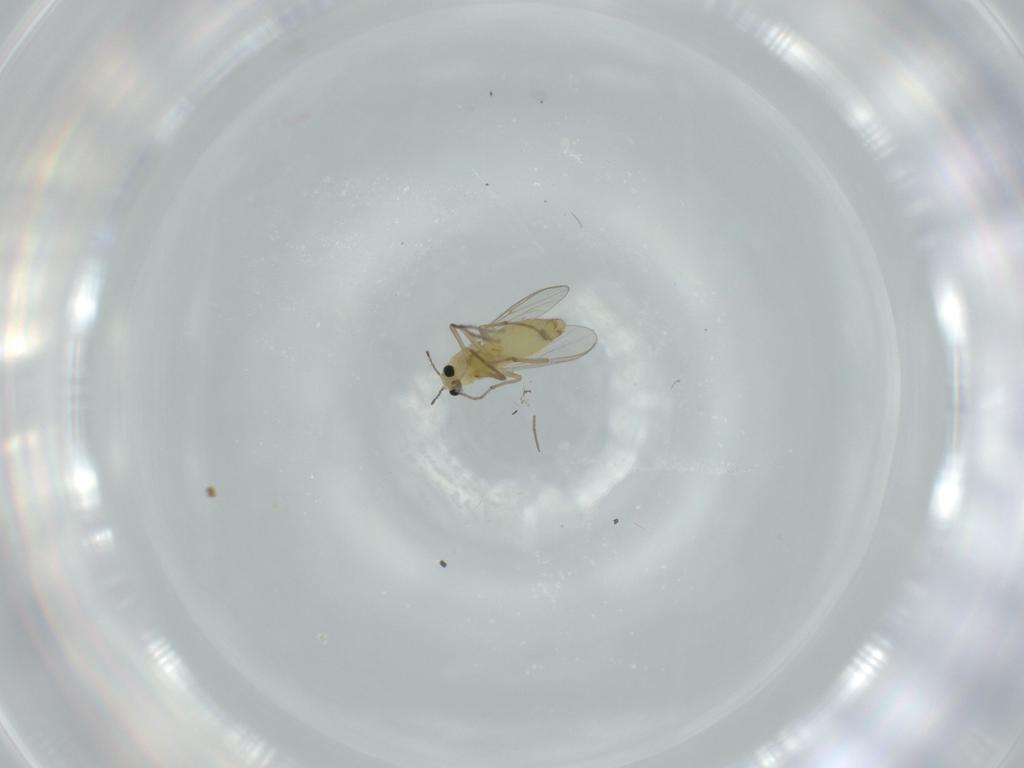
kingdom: Animalia
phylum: Arthropoda
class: Insecta
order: Diptera
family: Chironomidae
